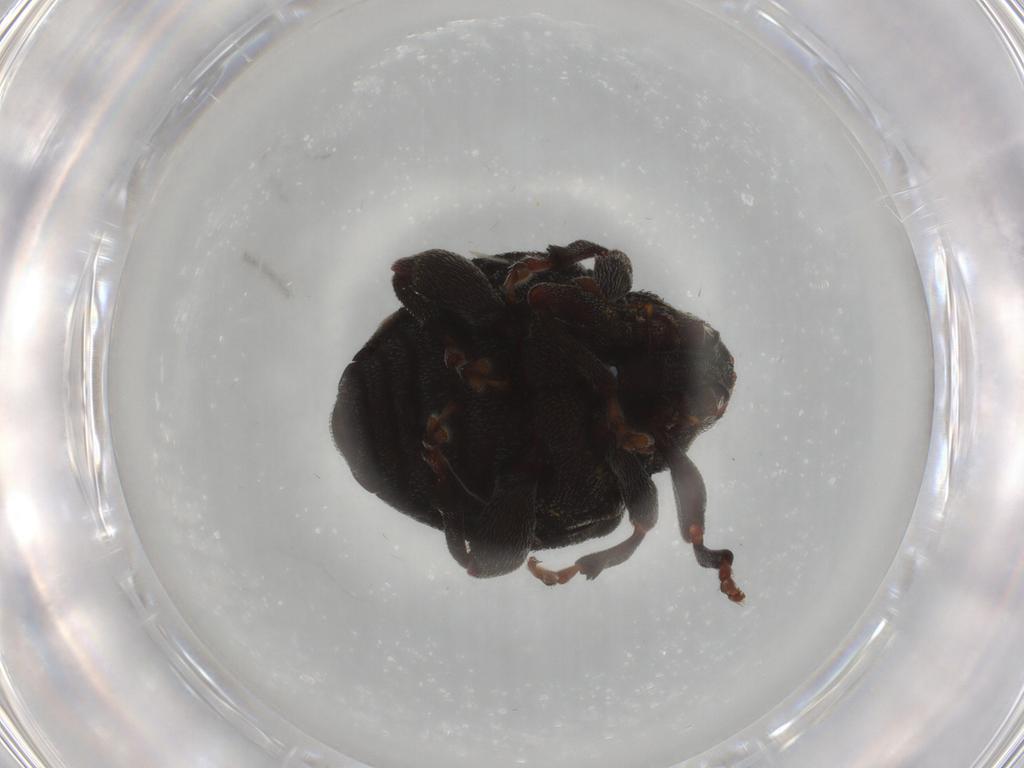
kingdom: Animalia
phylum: Arthropoda
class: Insecta
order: Coleoptera
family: Curculionidae
